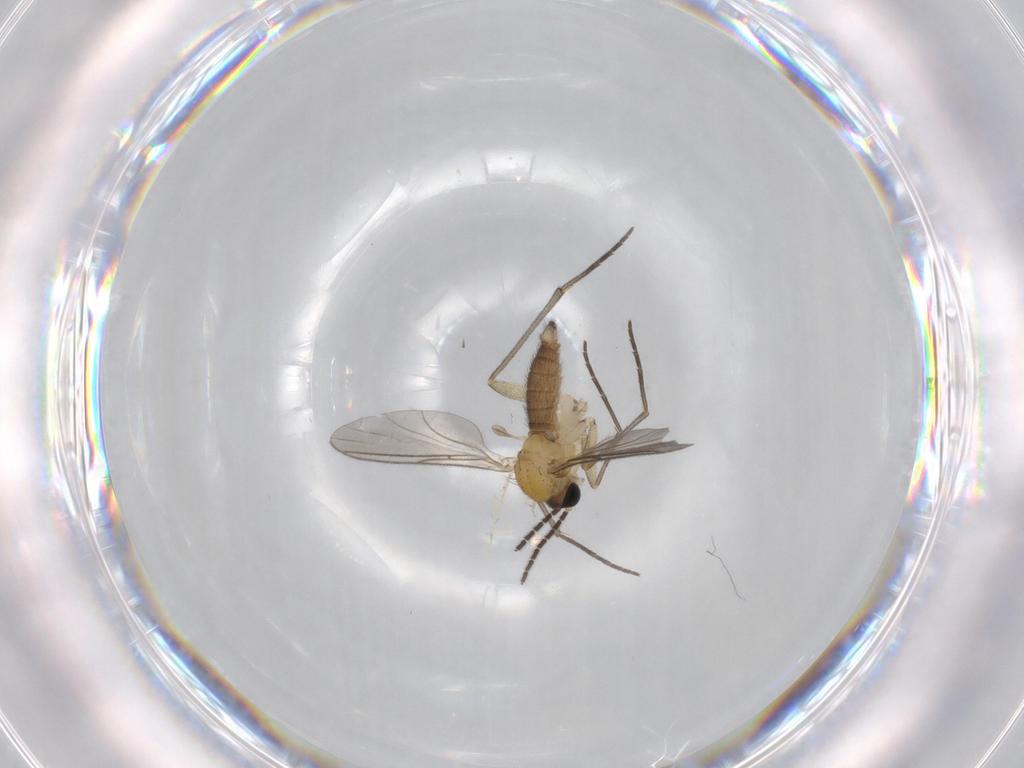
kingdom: Animalia
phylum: Arthropoda
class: Insecta
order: Diptera
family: Sciaridae
